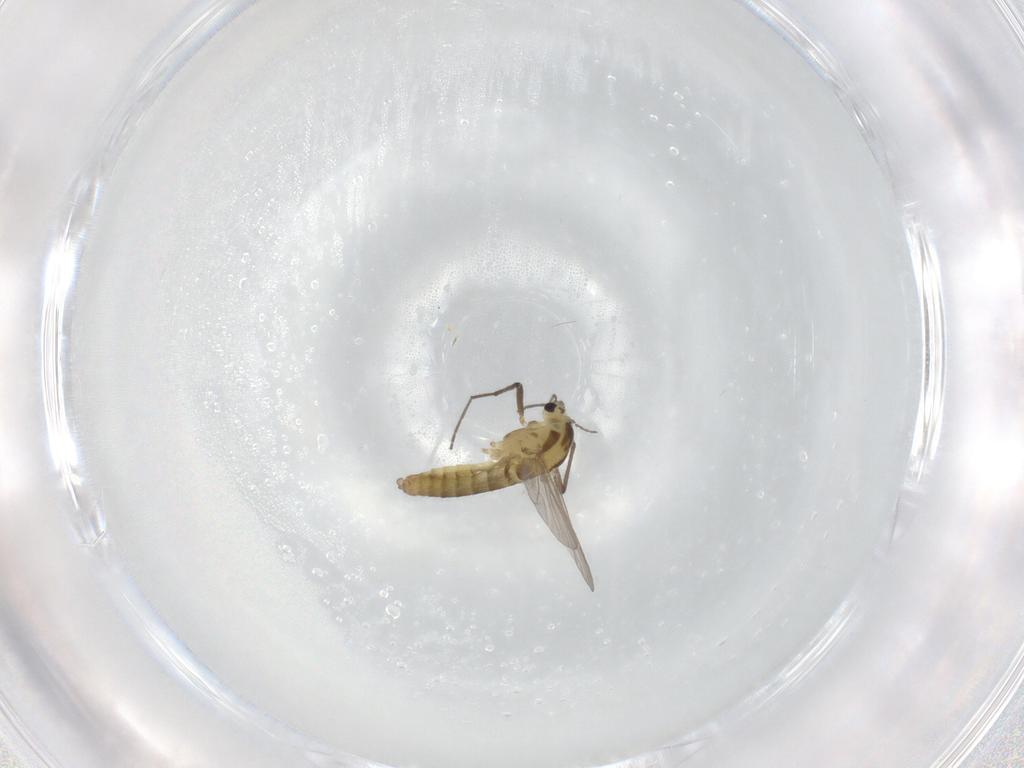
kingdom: Animalia
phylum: Arthropoda
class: Insecta
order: Diptera
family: Chironomidae
